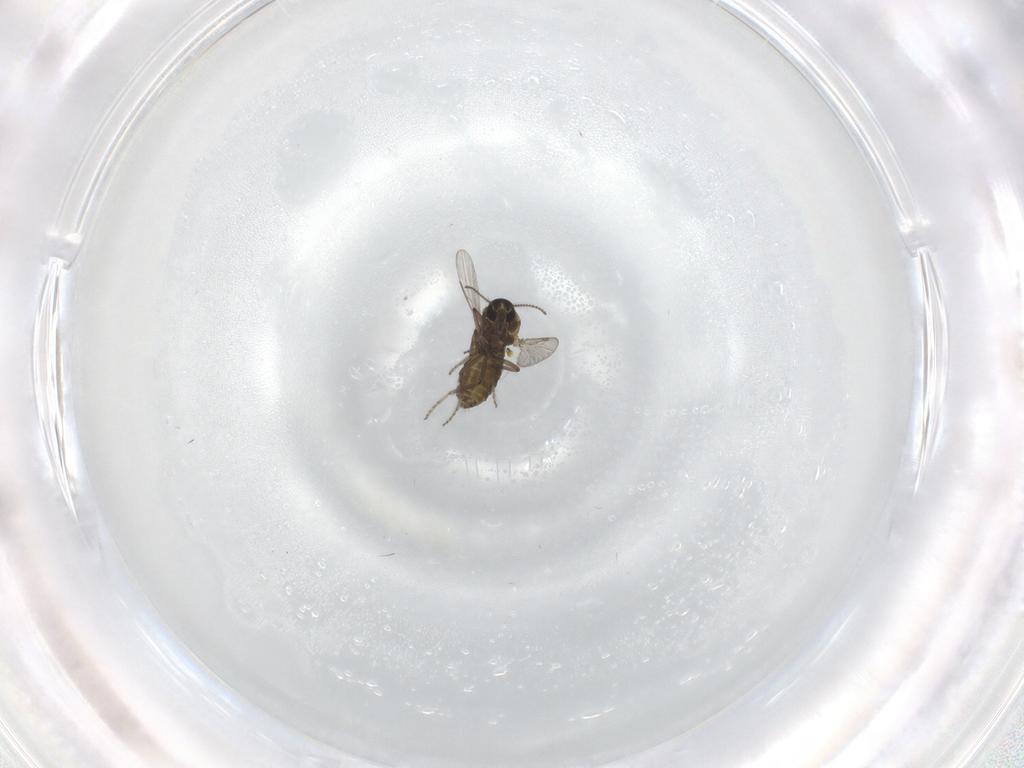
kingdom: Animalia
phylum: Arthropoda
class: Insecta
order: Diptera
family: Ceratopogonidae
